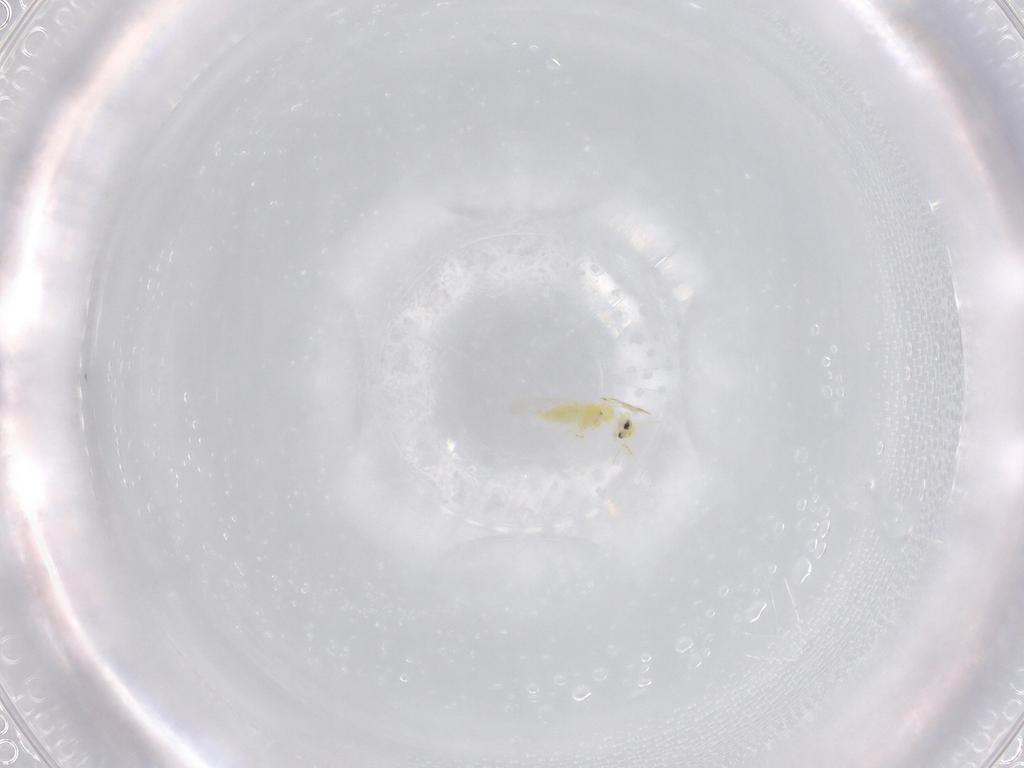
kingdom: Animalia
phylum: Arthropoda
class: Insecta
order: Hemiptera
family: Aleyrodidae
